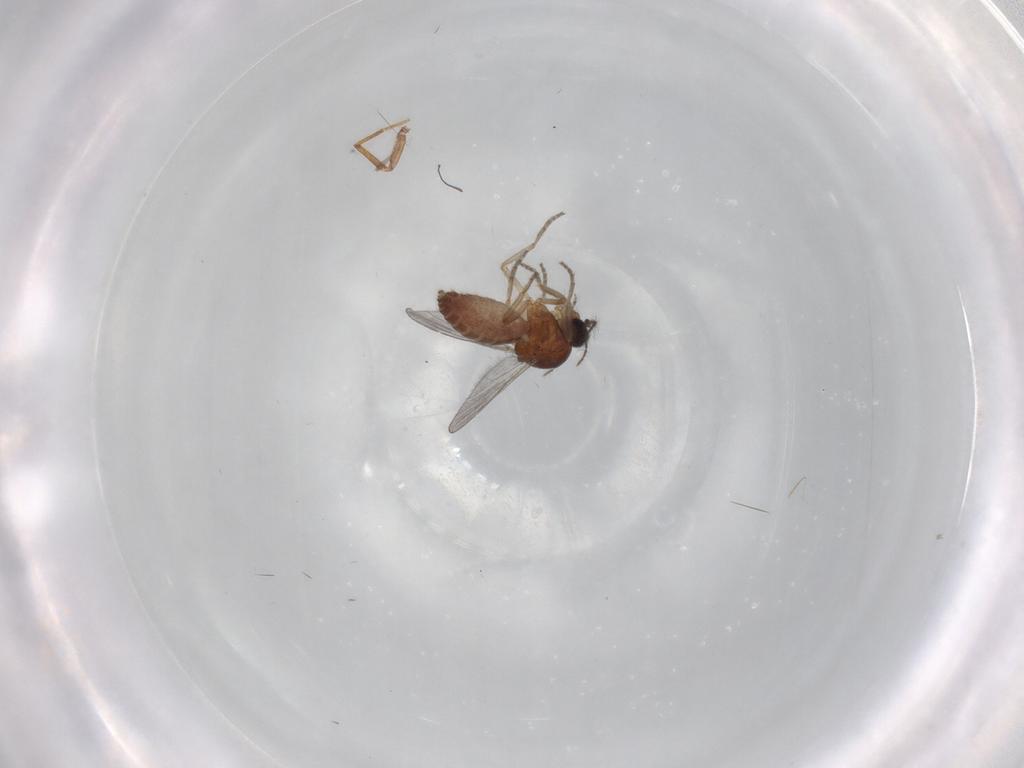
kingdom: Animalia
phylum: Arthropoda
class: Insecta
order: Diptera
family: Ceratopogonidae
